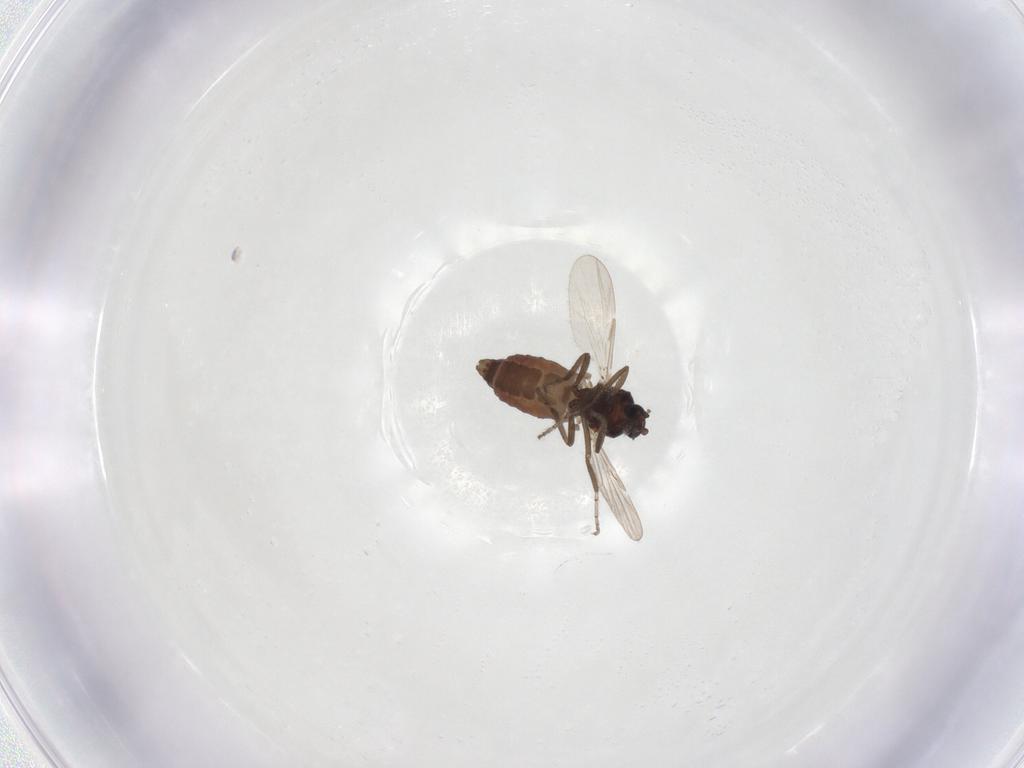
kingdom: Animalia
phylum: Arthropoda
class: Insecta
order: Diptera
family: Ceratopogonidae
